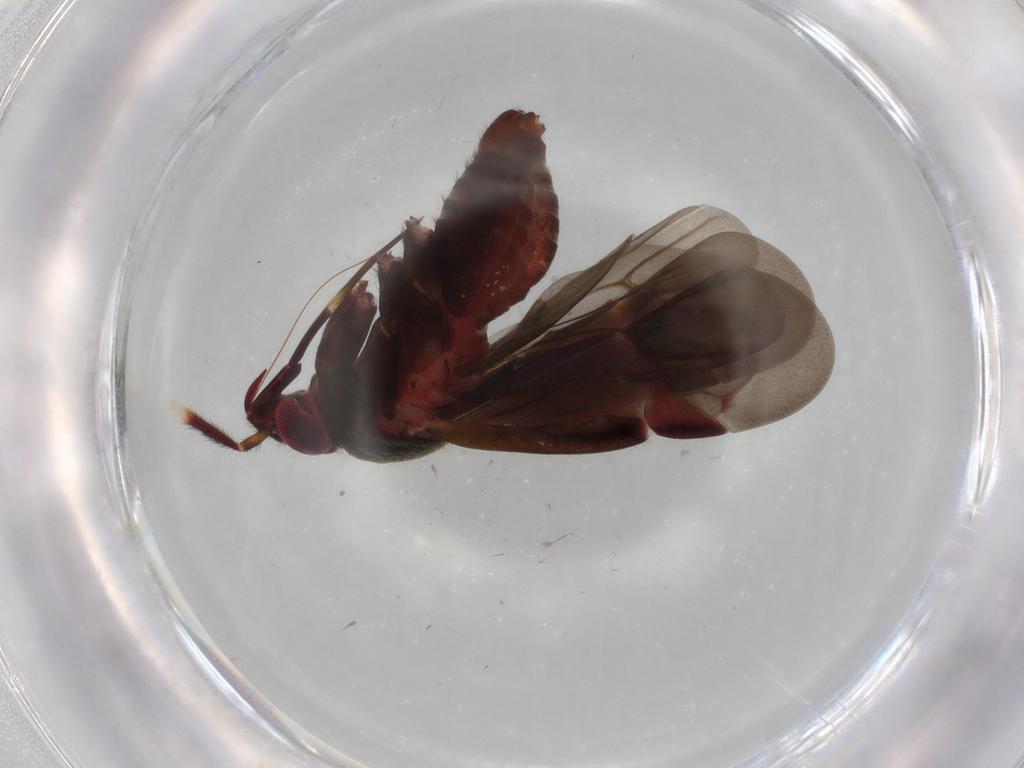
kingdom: Animalia
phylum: Arthropoda
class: Insecta
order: Hemiptera
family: Miridae
